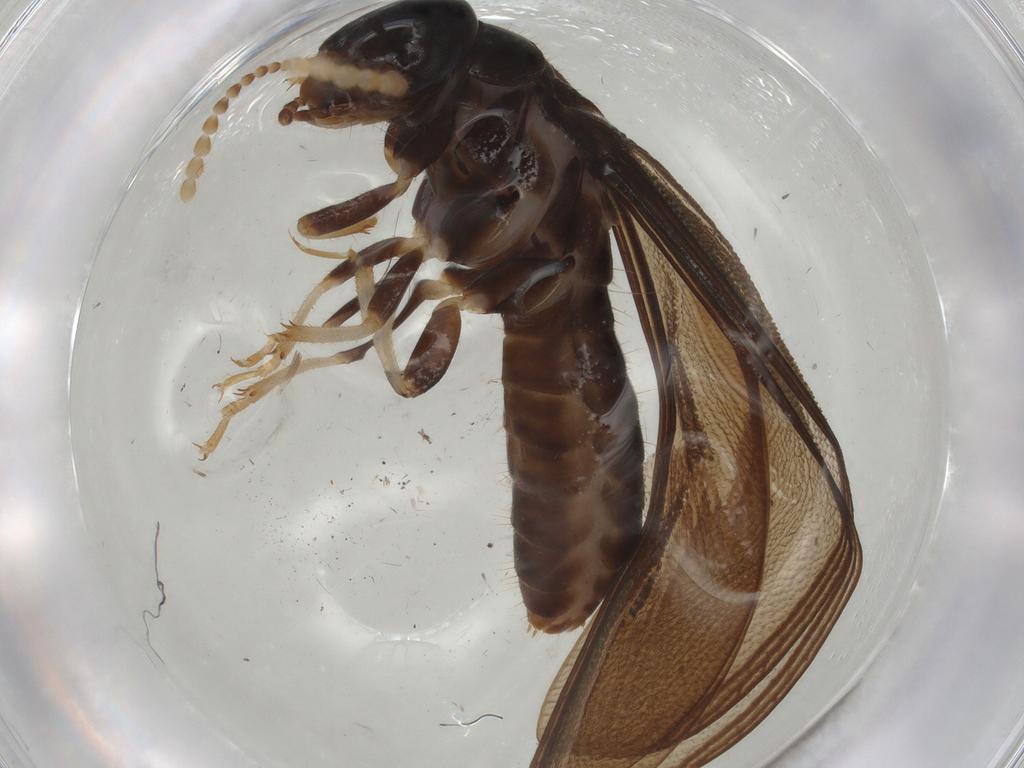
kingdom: Animalia
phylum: Arthropoda
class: Insecta
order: Blattodea
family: Kalotermitidae
